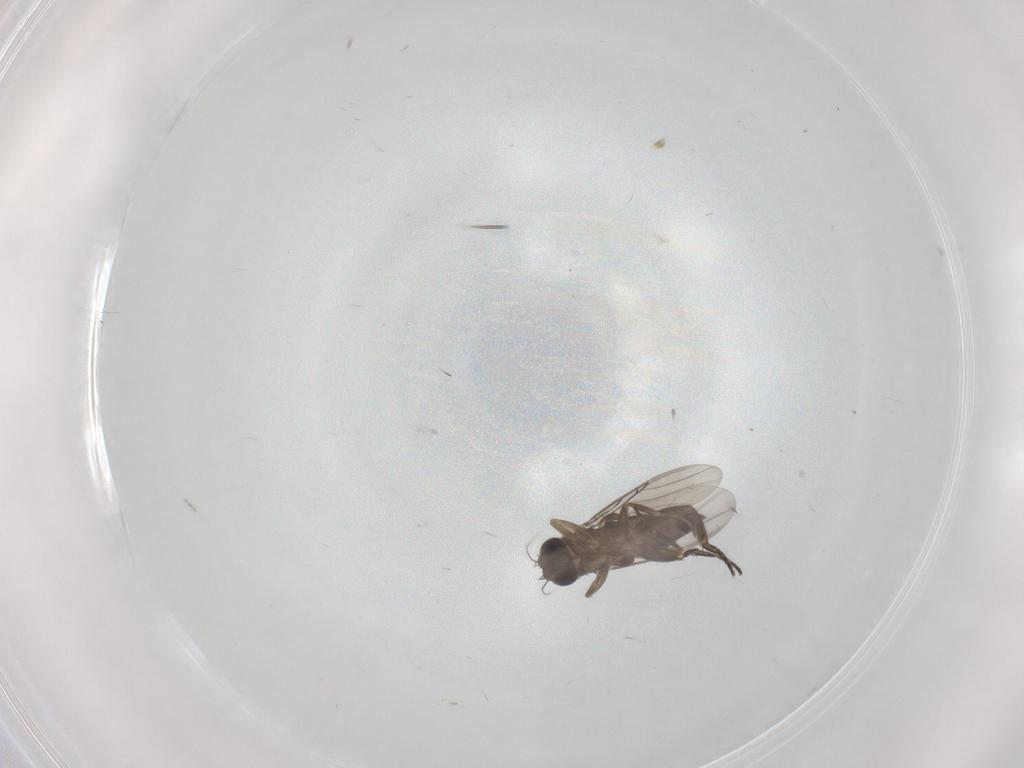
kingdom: Animalia
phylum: Arthropoda
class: Insecta
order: Diptera
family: Phoridae
